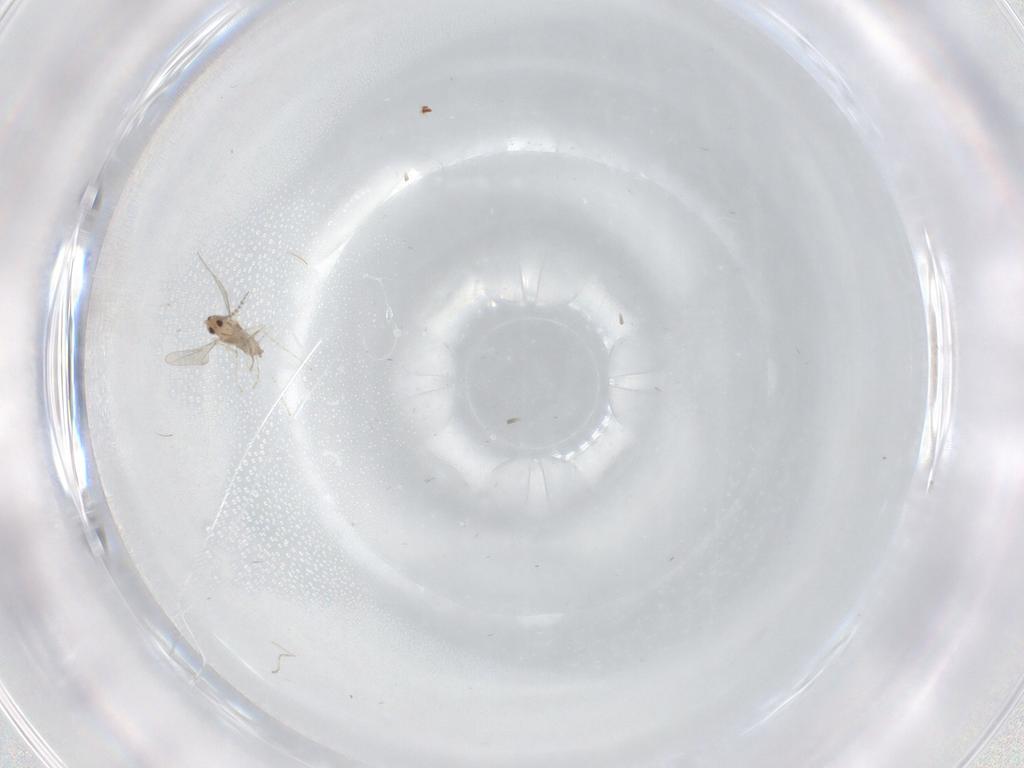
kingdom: Animalia
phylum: Arthropoda
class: Insecta
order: Diptera
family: Cecidomyiidae
